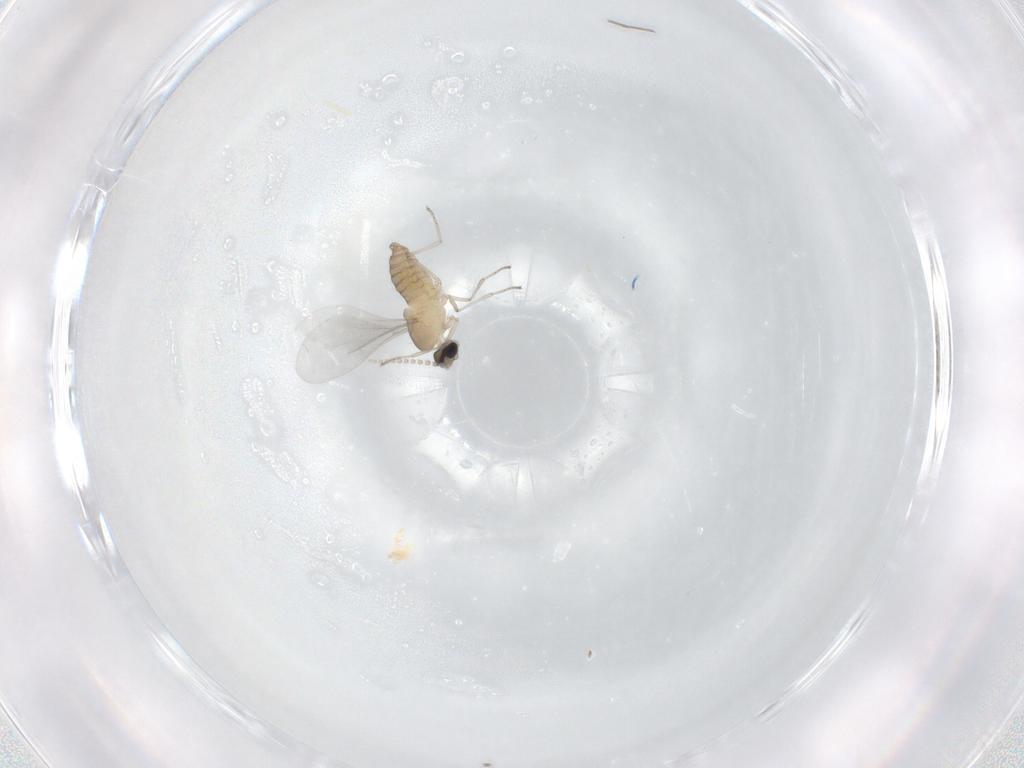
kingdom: Animalia
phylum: Arthropoda
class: Insecta
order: Diptera
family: Cecidomyiidae
